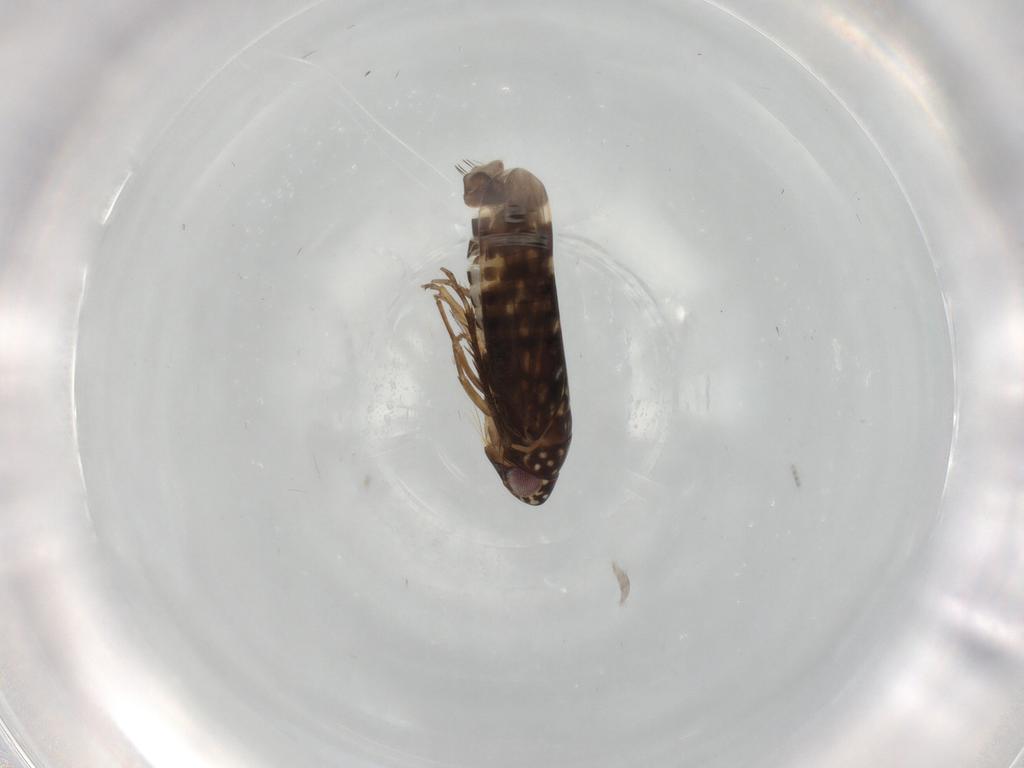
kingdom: Animalia
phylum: Arthropoda
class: Insecta
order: Hemiptera
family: Cicadellidae
